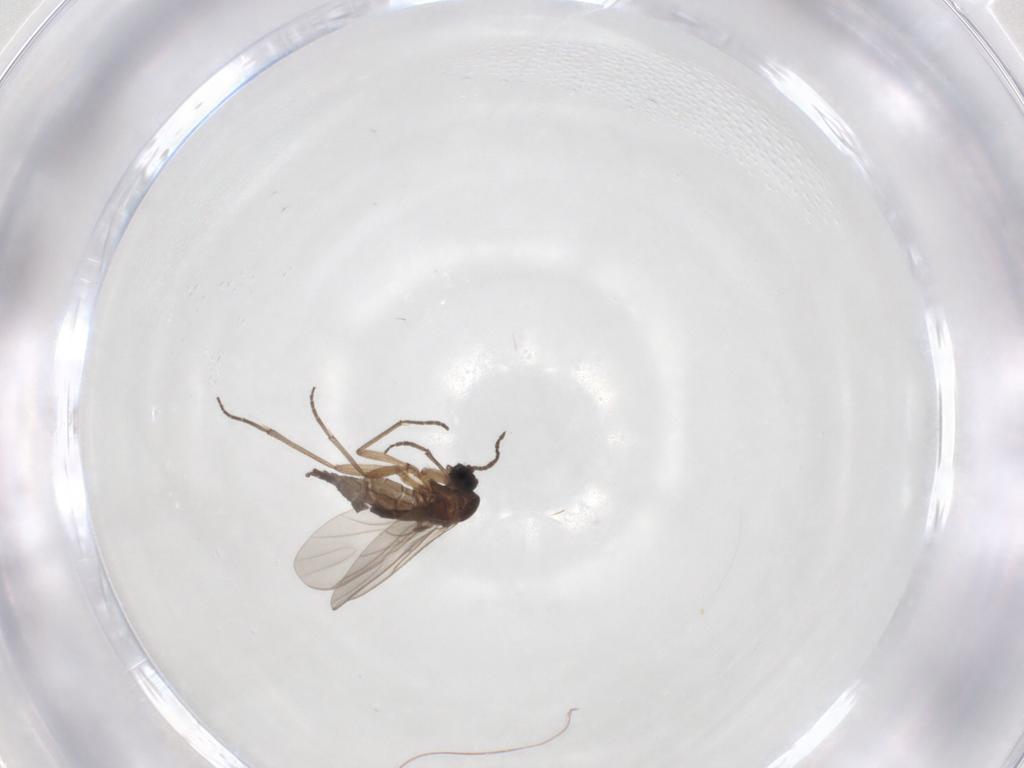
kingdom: Animalia
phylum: Arthropoda
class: Insecta
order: Diptera
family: Sciaridae
